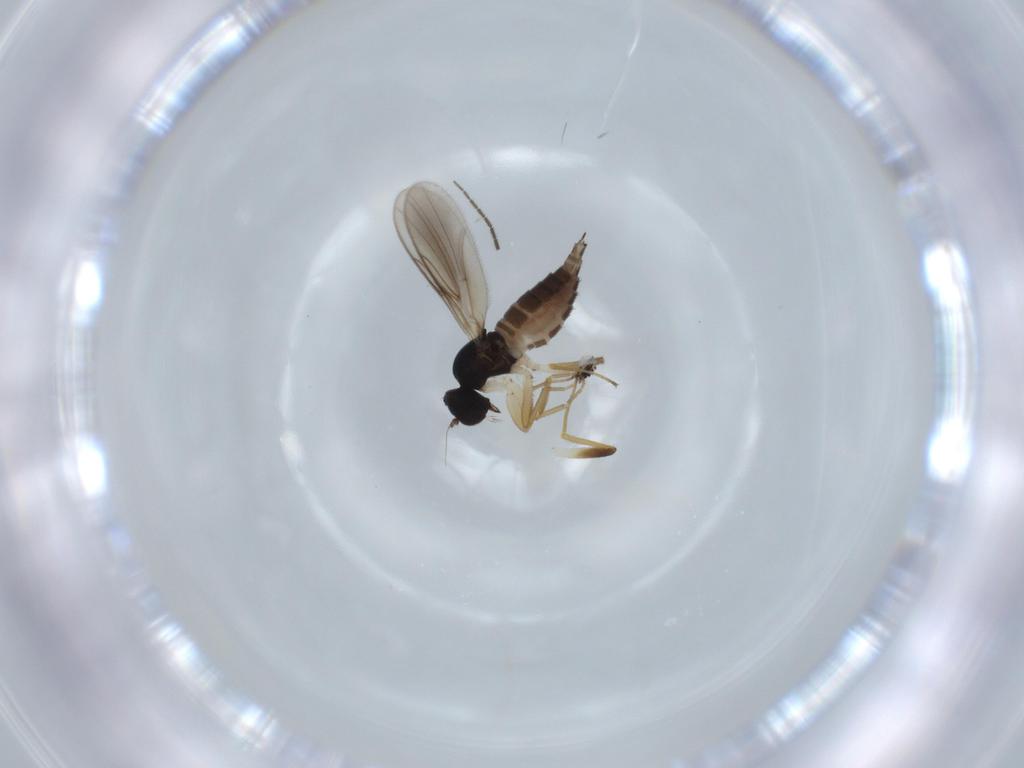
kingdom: Animalia
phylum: Arthropoda
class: Insecta
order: Diptera
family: Hybotidae
